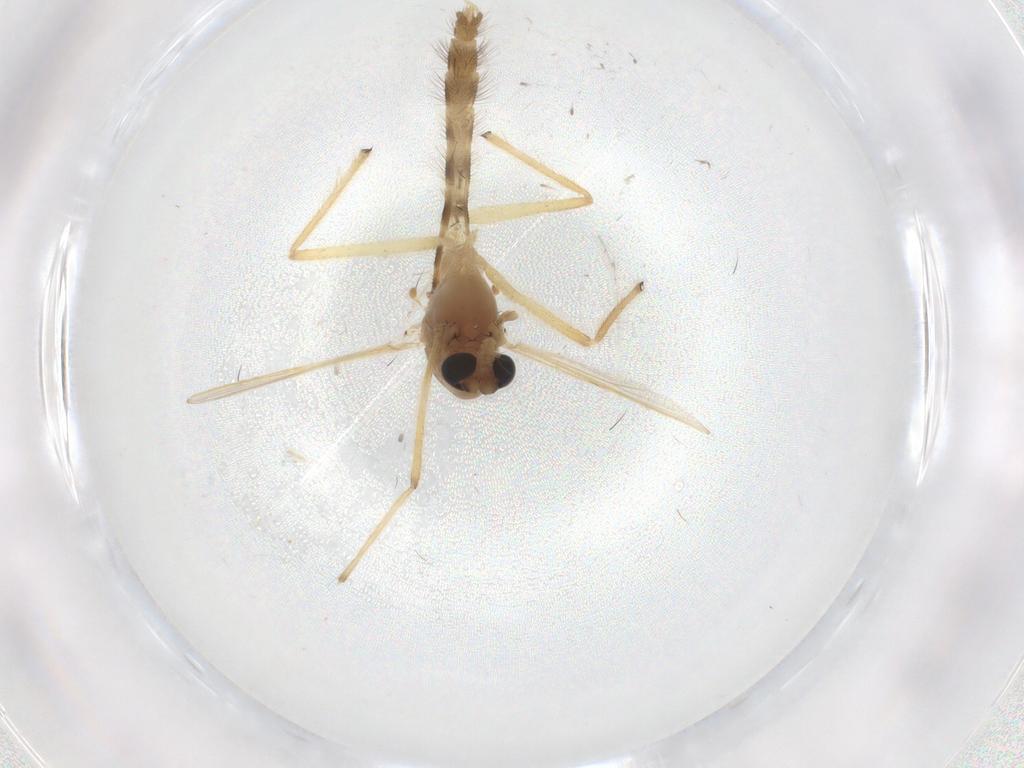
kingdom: Animalia
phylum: Arthropoda
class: Insecta
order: Diptera
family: Chironomidae
